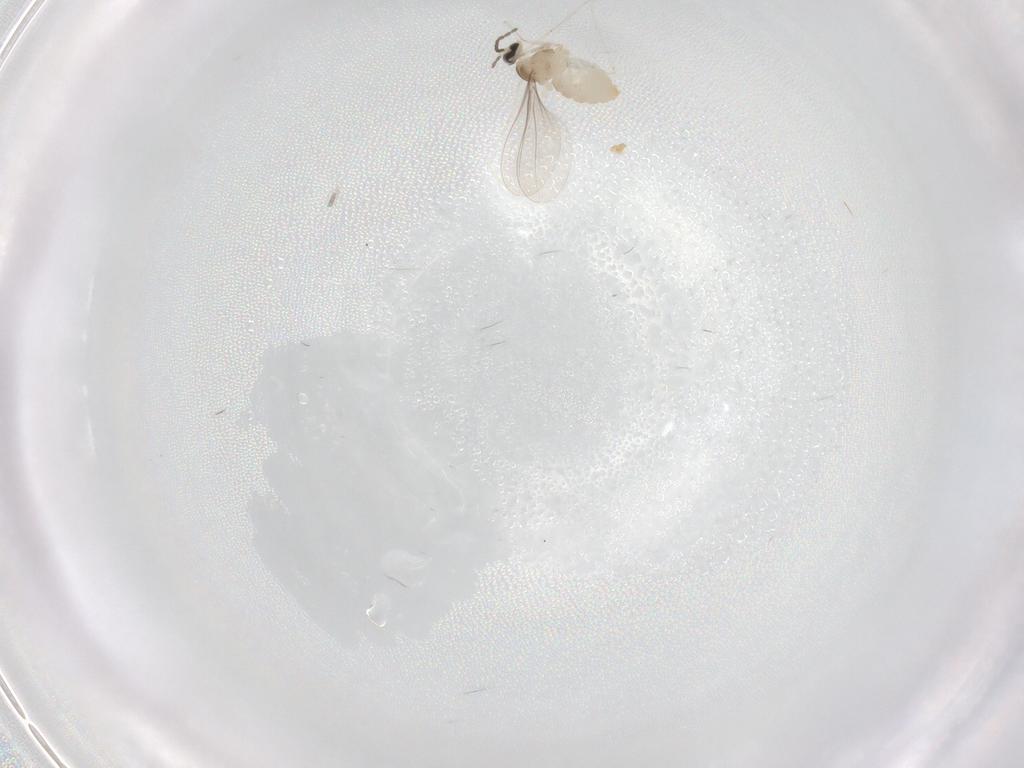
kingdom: Animalia
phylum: Arthropoda
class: Insecta
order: Diptera
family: Cecidomyiidae
